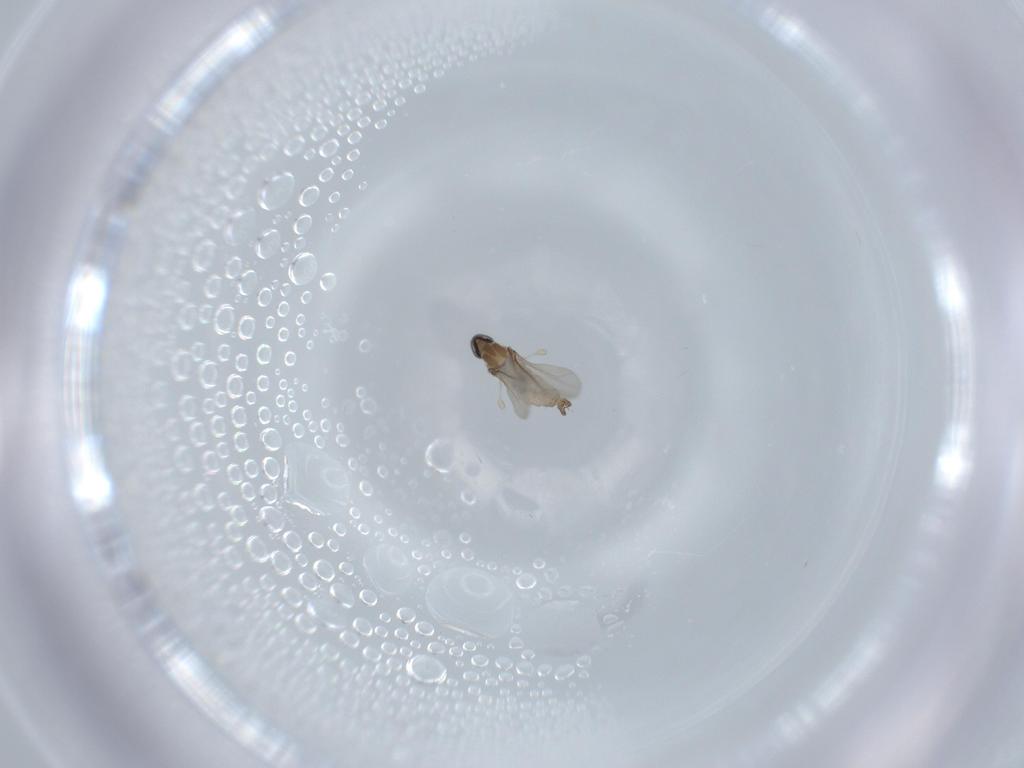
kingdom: Animalia
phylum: Arthropoda
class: Insecta
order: Diptera
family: Cecidomyiidae
